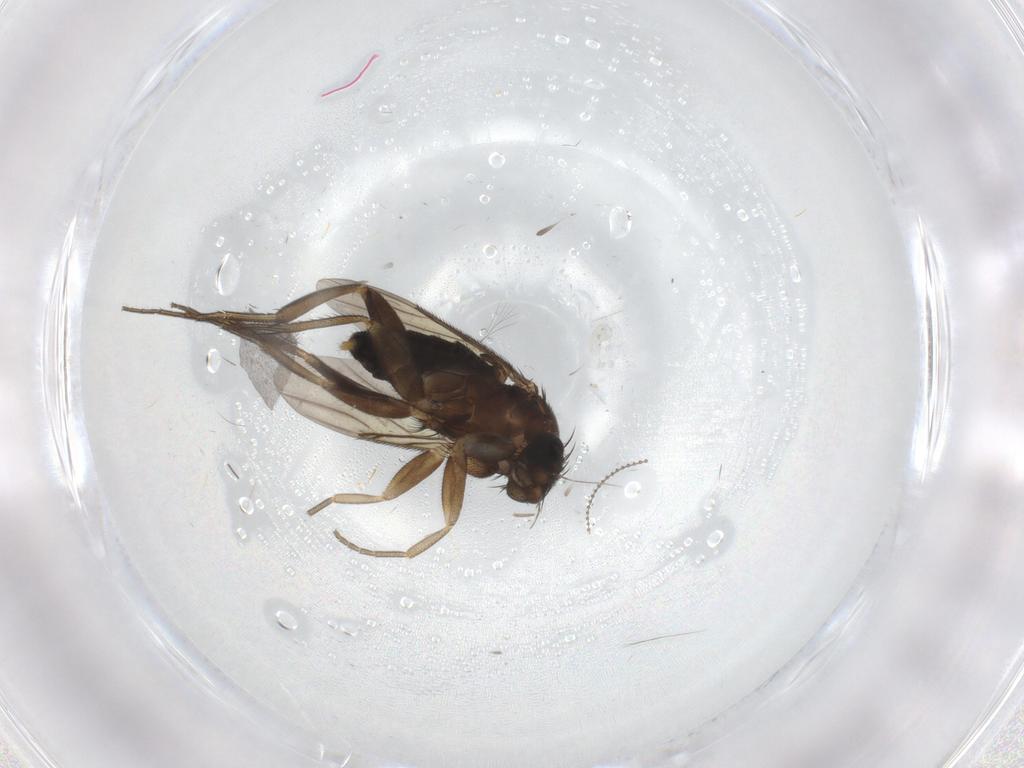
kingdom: Animalia
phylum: Arthropoda
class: Insecta
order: Diptera
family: Phoridae
